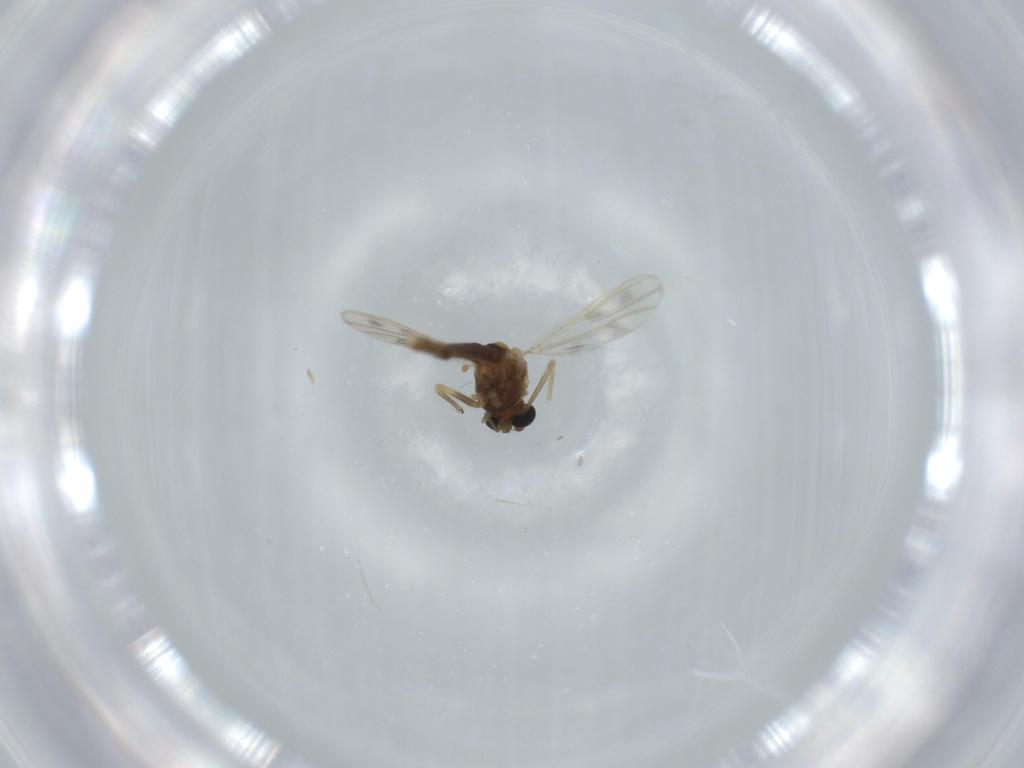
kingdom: Animalia
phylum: Arthropoda
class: Insecta
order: Diptera
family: Chironomidae
